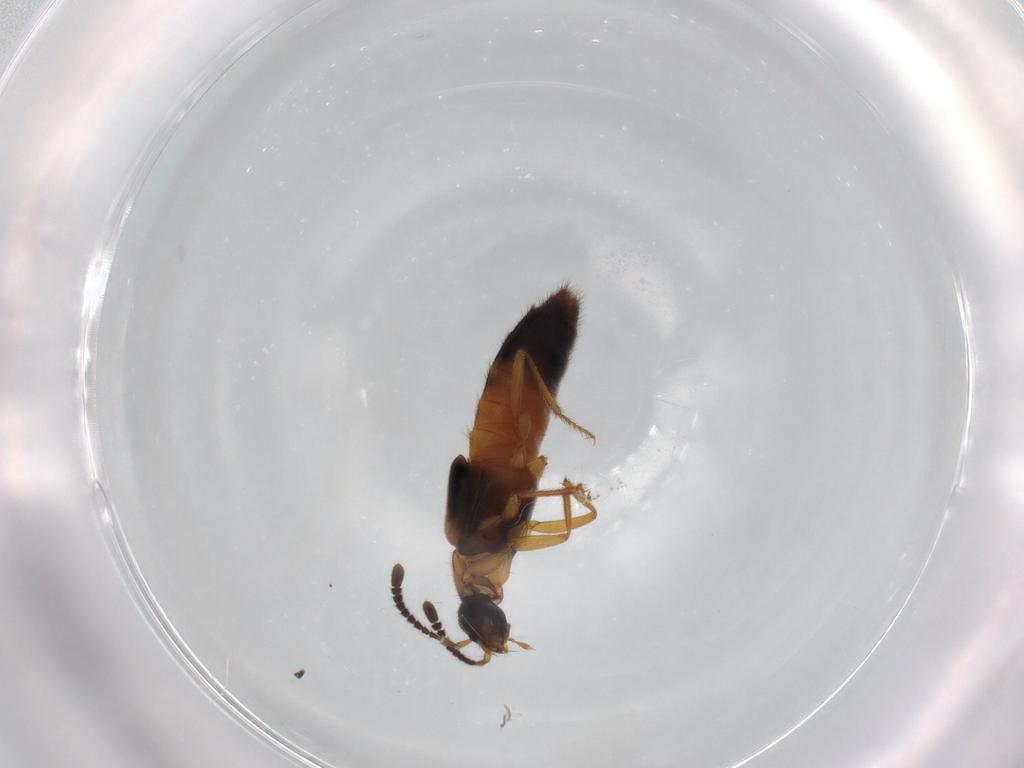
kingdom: Animalia
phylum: Arthropoda
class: Insecta
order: Coleoptera
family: Staphylinidae
